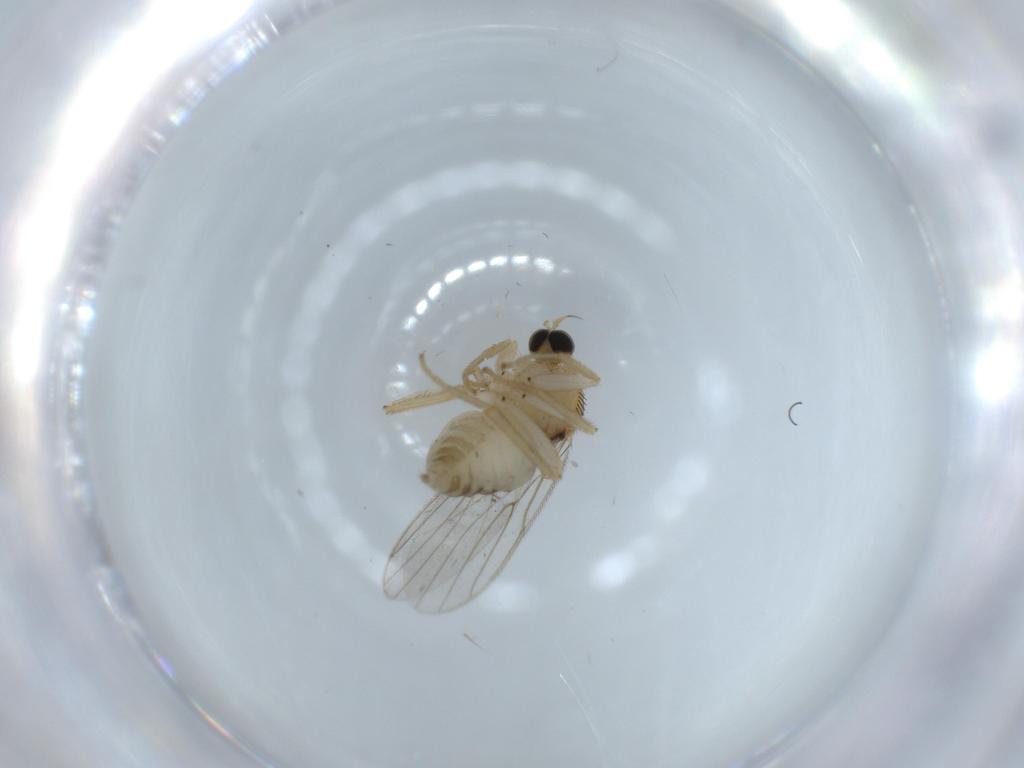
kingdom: Animalia
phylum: Arthropoda
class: Insecta
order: Diptera
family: Hybotidae
